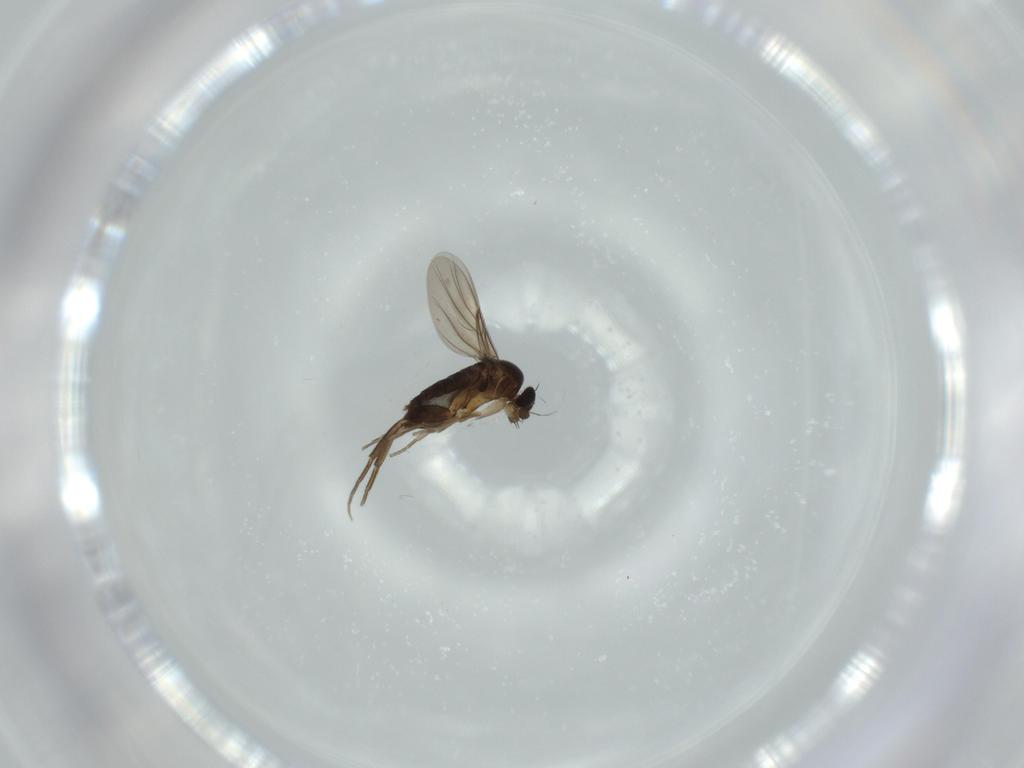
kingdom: Animalia
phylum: Arthropoda
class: Insecta
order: Diptera
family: Phoridae
